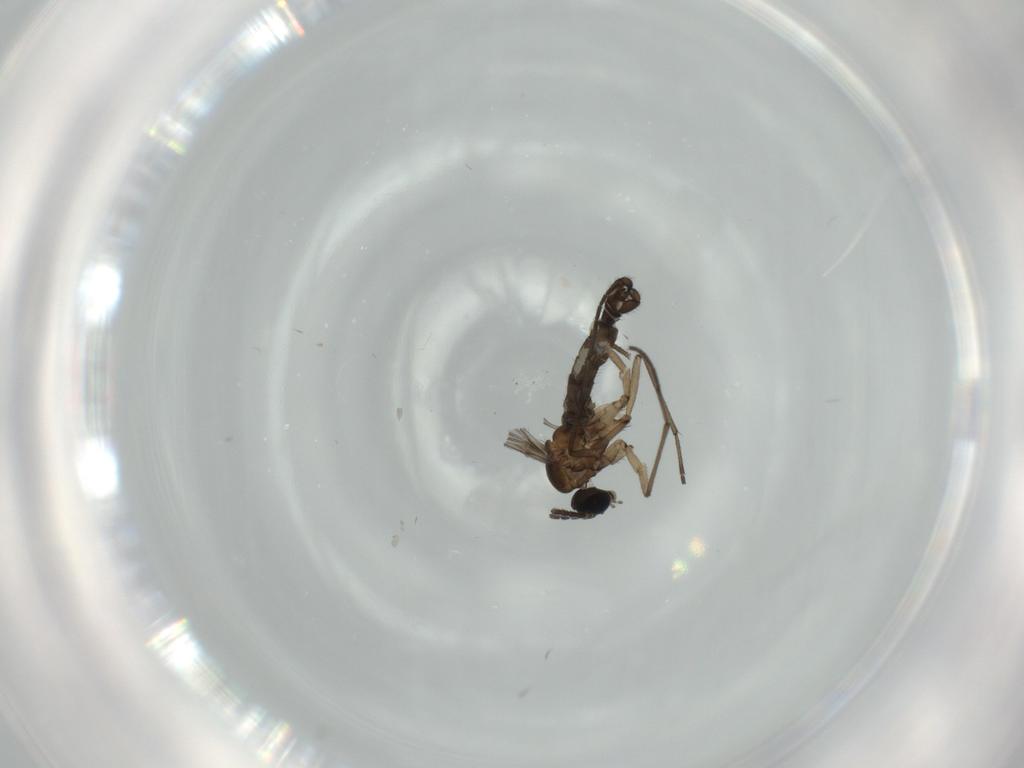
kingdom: Animalia
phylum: Arthropoda
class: Insecta
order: Diptera
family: Sciaridae
